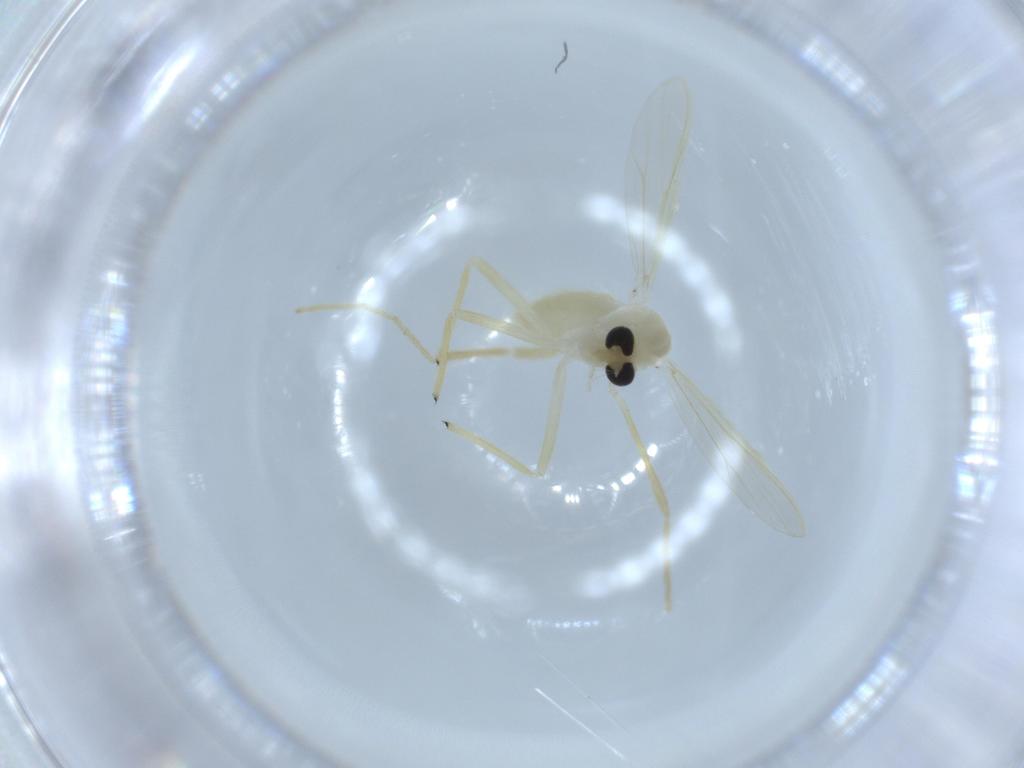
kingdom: Animalia
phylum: Arthropoda
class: Insecta
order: Diptera
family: Chironomidae
